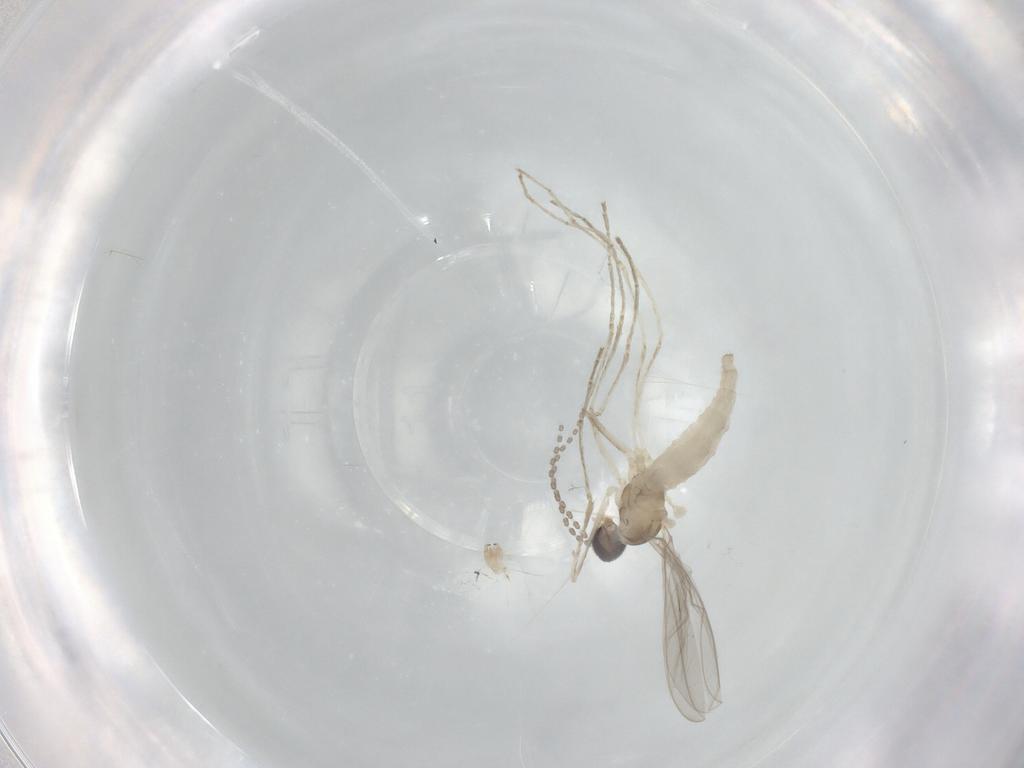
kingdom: Animalia
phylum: Arthropoda
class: Insecta
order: Diptera
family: Cecidomyiidae
